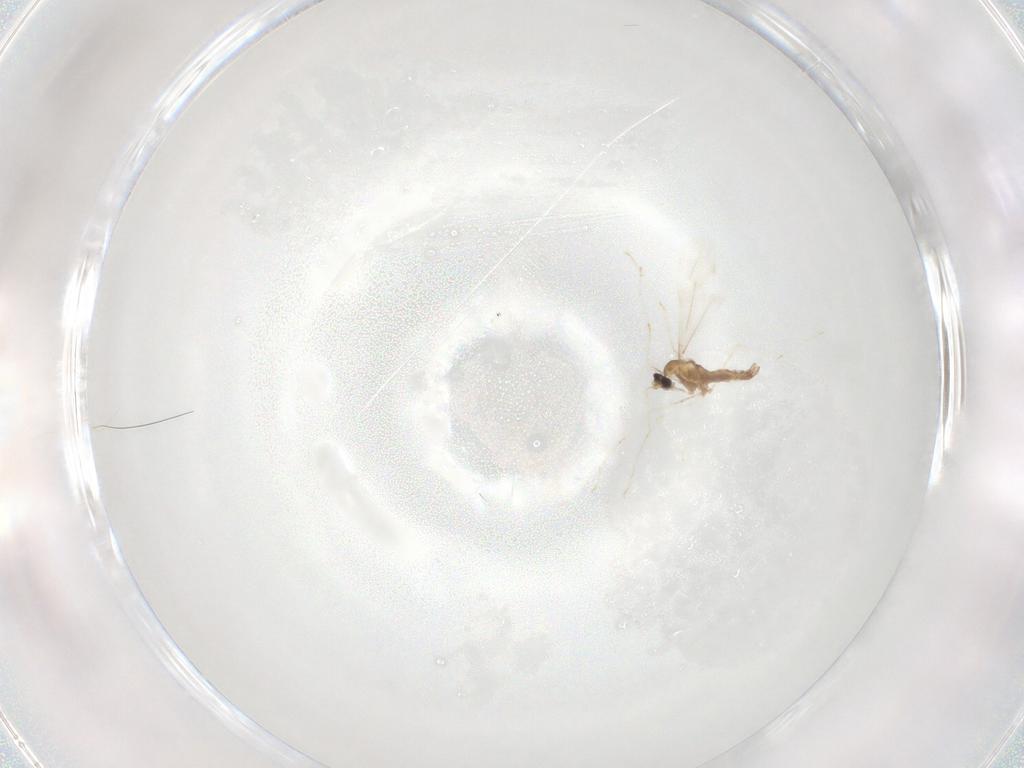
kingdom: Animalia
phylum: Arthropoda
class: Insecta
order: Diptera
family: Cecidomyiidae
